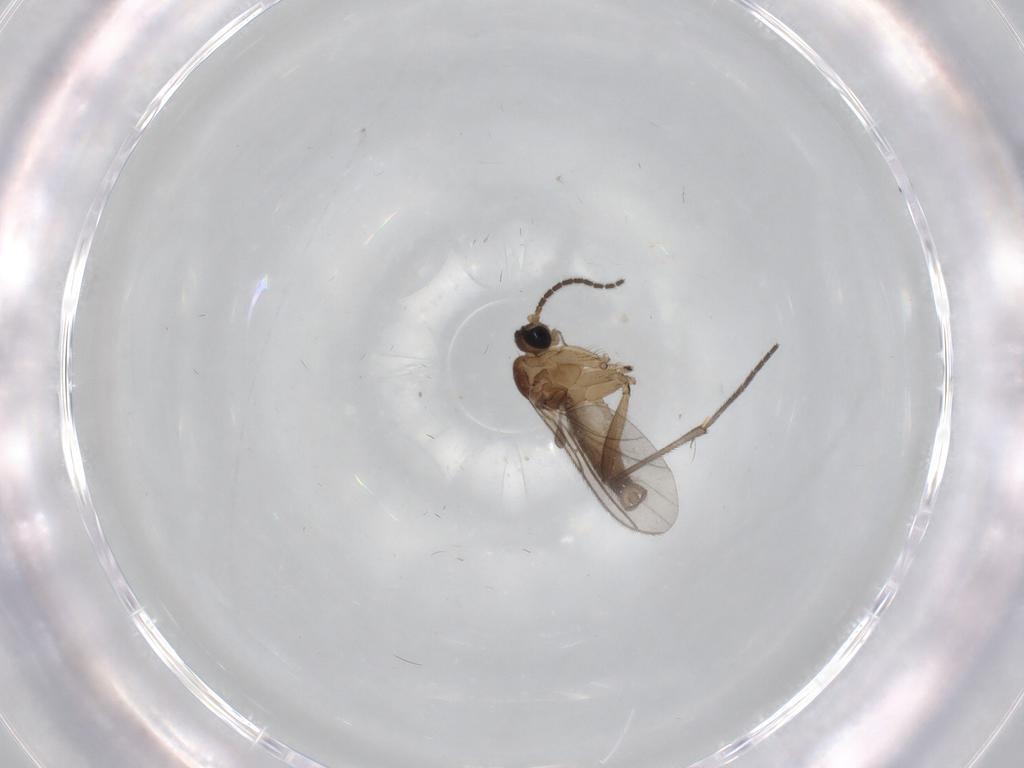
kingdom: Animalia
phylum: Arthropoda
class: Insecta
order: Diptera
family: Sciaridae
